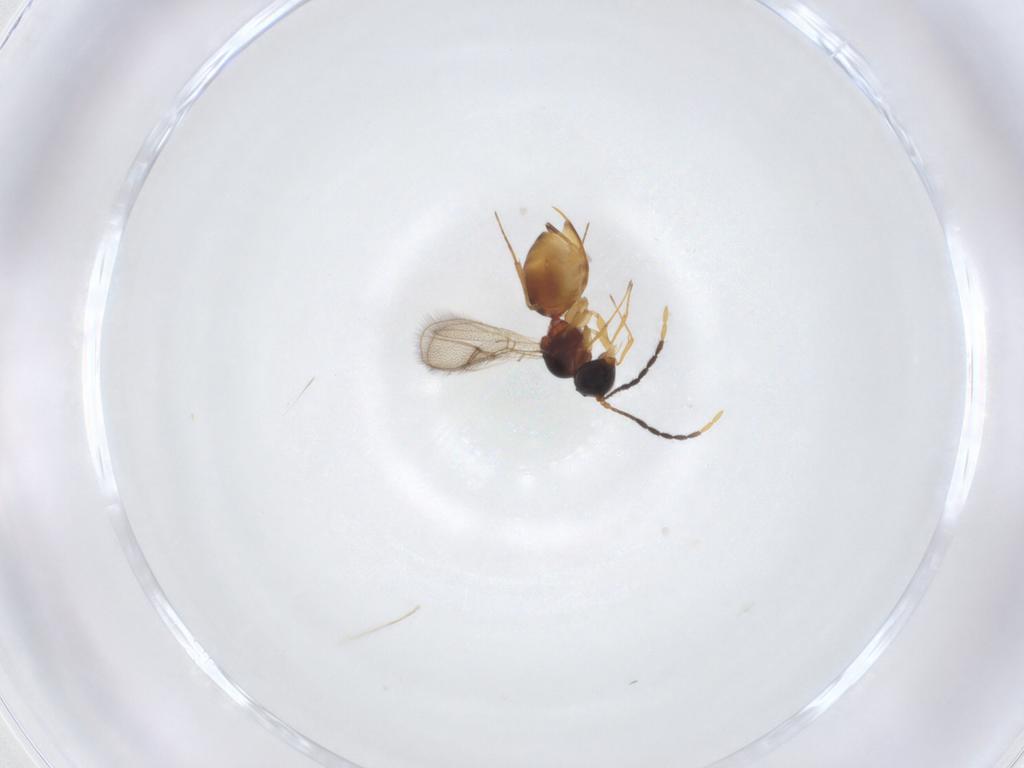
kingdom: Animalia
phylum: Arthropoda
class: Insecta
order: Hymenoptera
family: Figitidae
